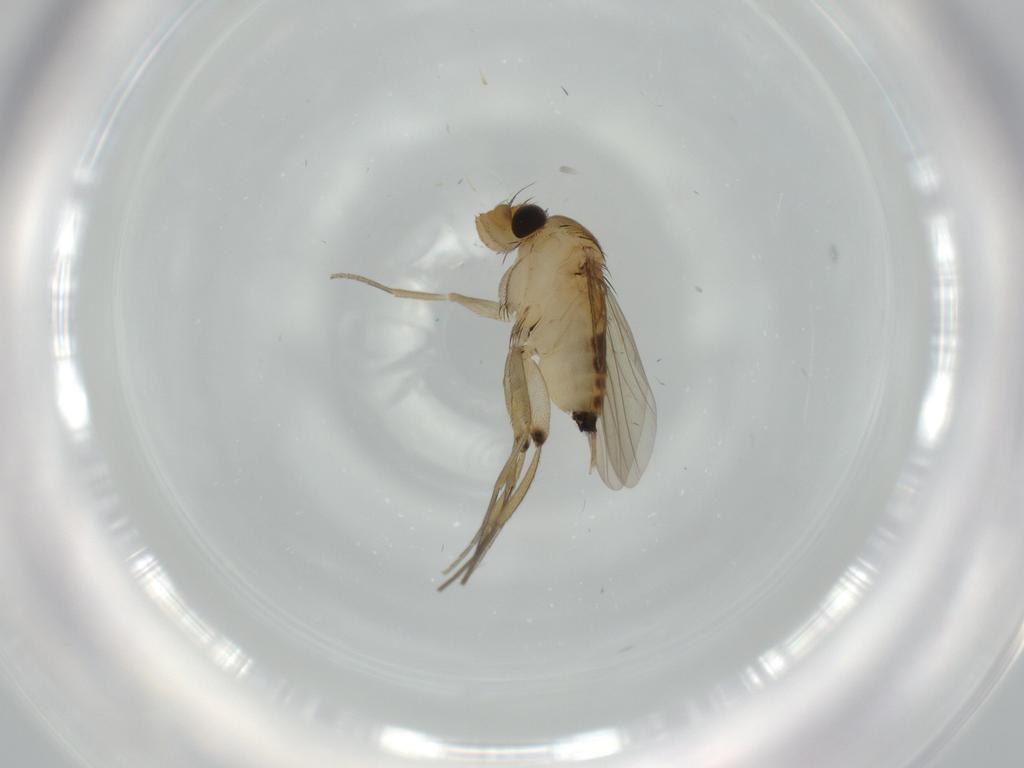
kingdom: Animalia
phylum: Arthropoda
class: Insecta
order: Diptera
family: Phoridae
